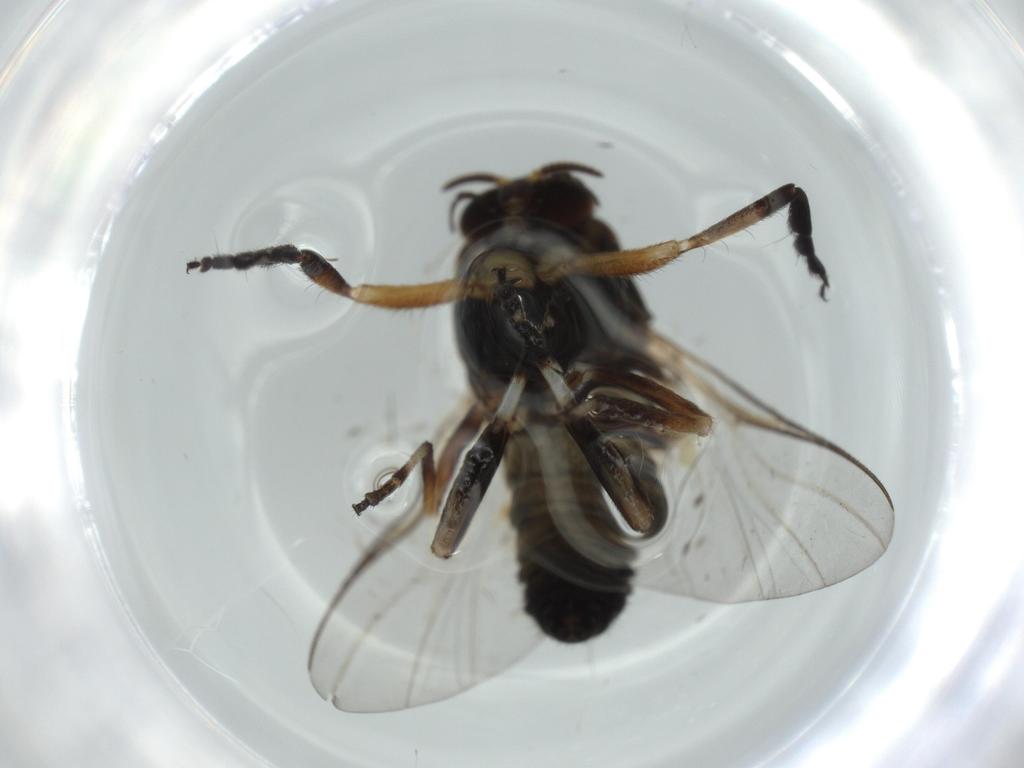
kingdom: Animalia
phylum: Arthropoda
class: Insecta
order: Diptera
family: Phoridae
